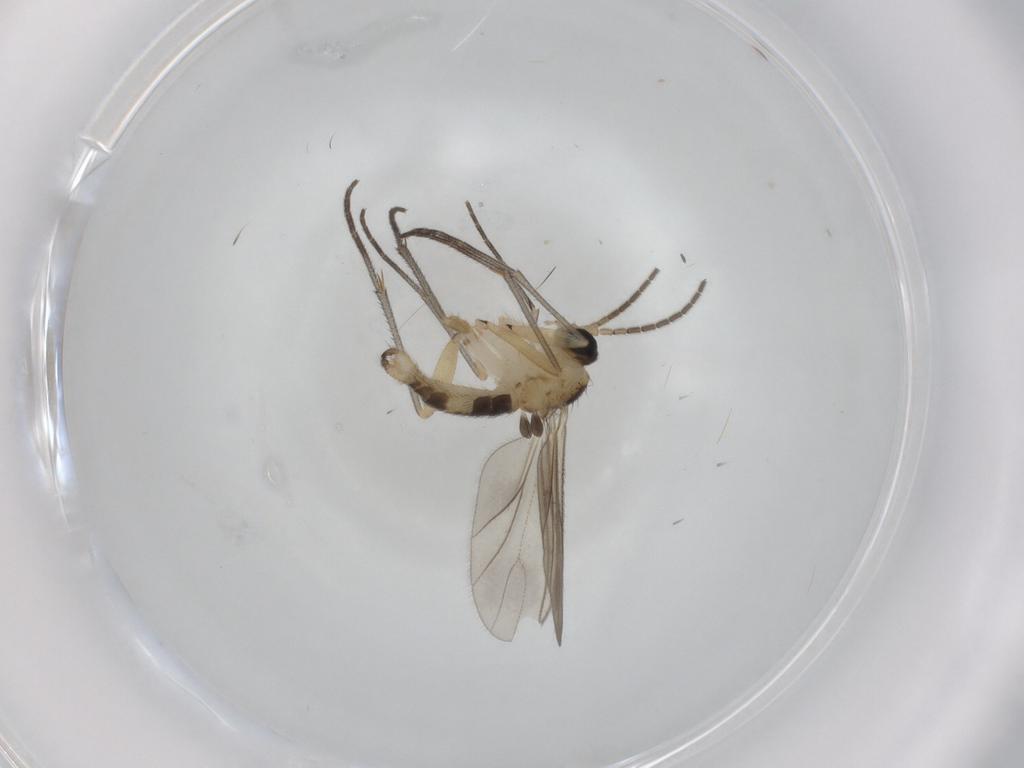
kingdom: Animalia
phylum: Arthropoda
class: Insecta
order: Diptera
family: Sciaridae
